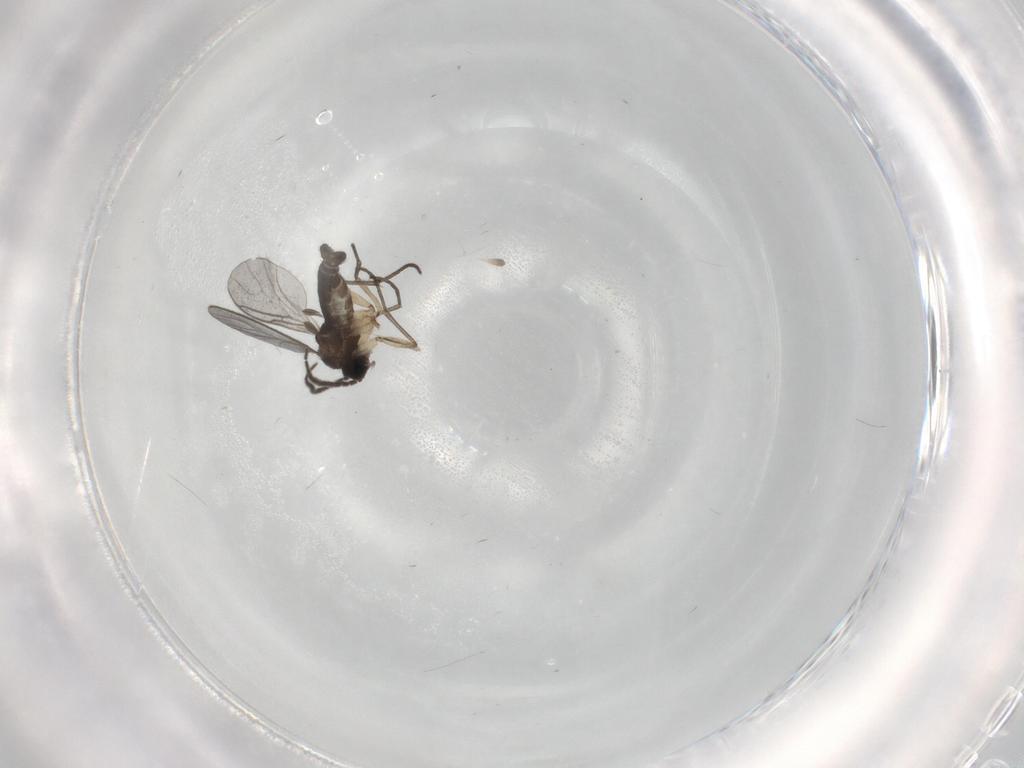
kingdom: Animalia
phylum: Arthropoda
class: Insecta
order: Diptera
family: Sciaridae
